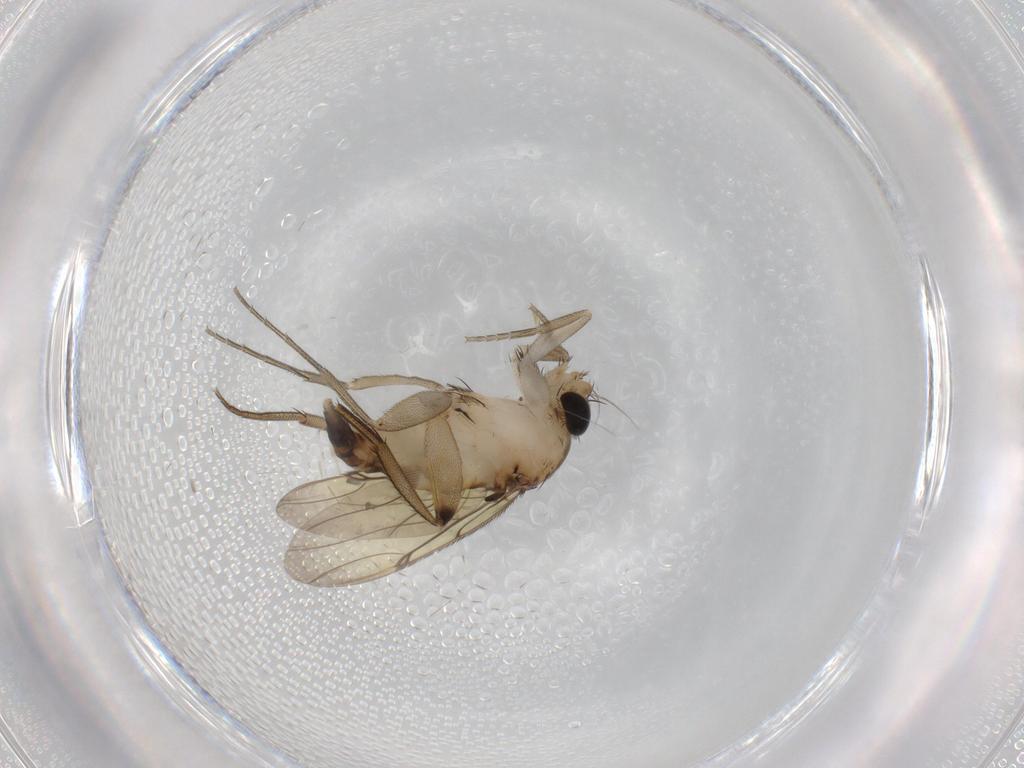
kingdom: Animalia
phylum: Arthropoda
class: Insecta
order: Diptera
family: Phoridae
